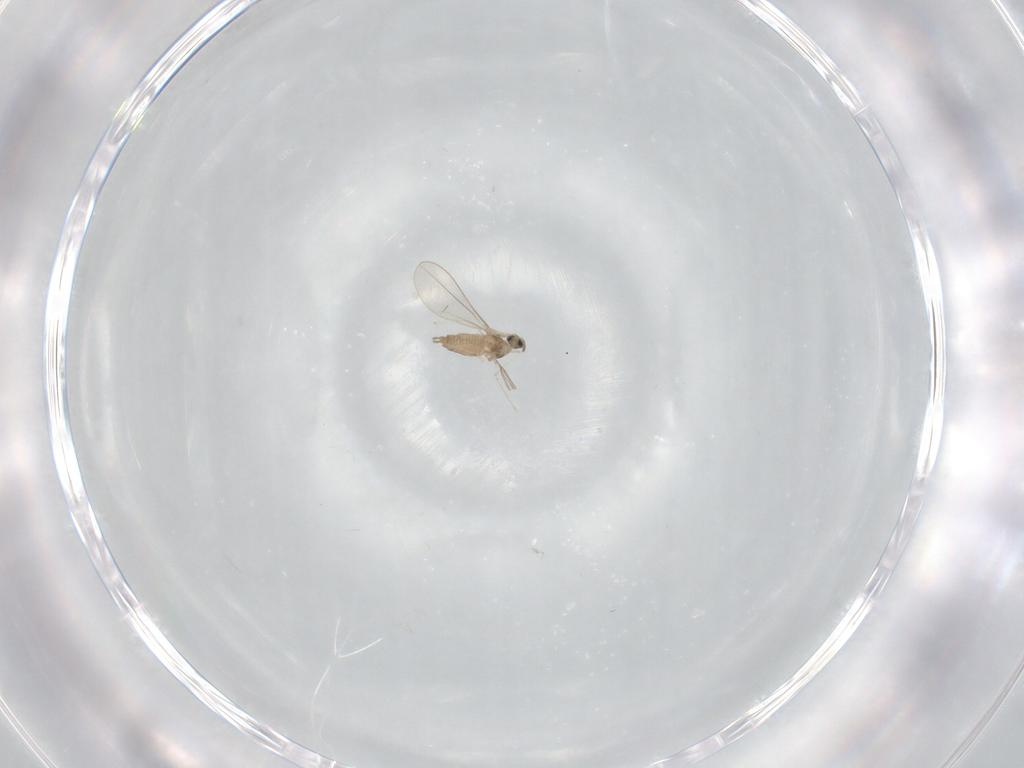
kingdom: Animalia
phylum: Arthropoda
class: Insecta
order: Diptera
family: Cecidomyiidae
